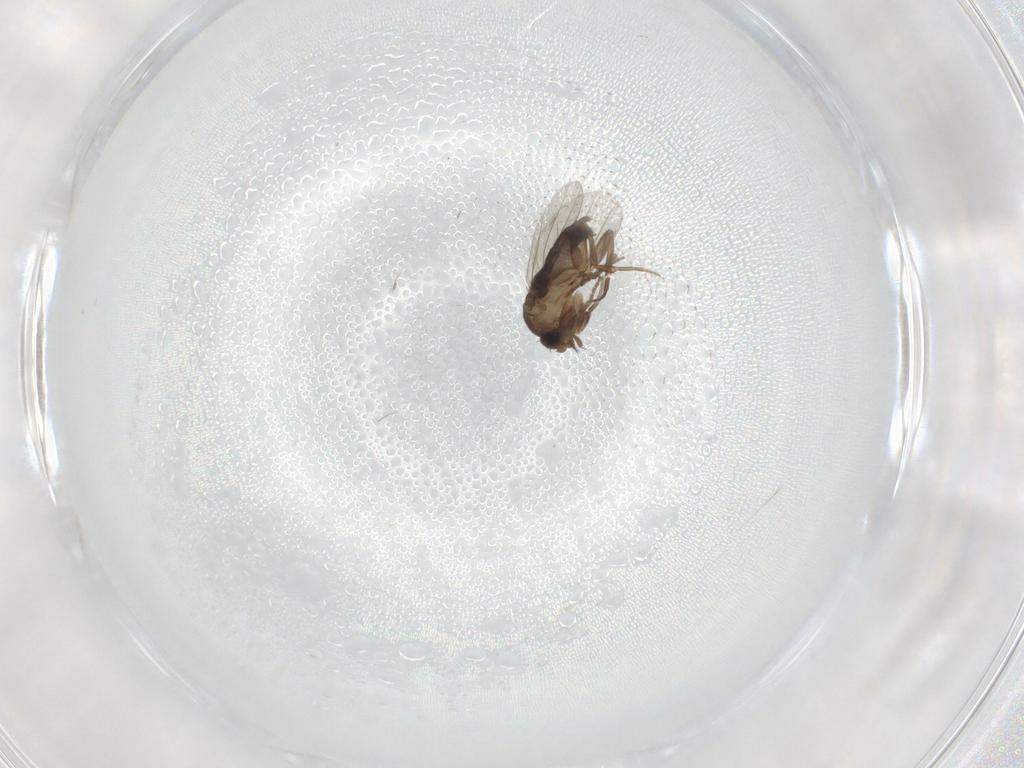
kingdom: Animalia
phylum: Arthropoda
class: Insecta
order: Diptera
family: Phoridae
